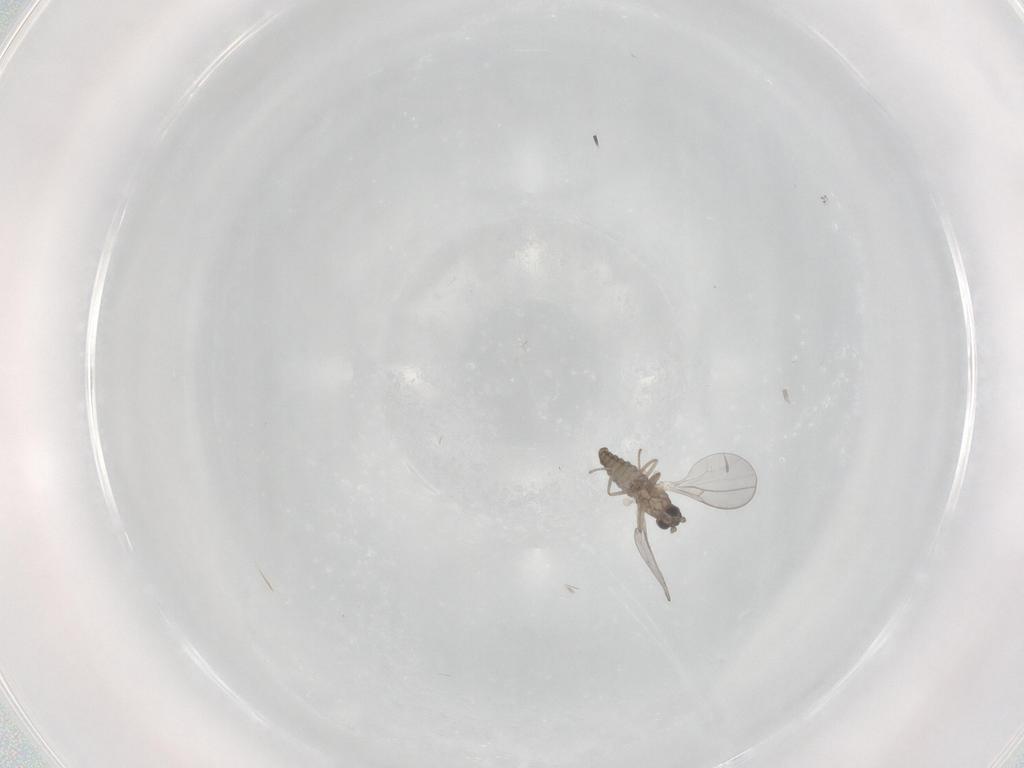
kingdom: Animalia
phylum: Arthropoda
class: Insecta
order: Diptera
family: Cecidomyiidae
